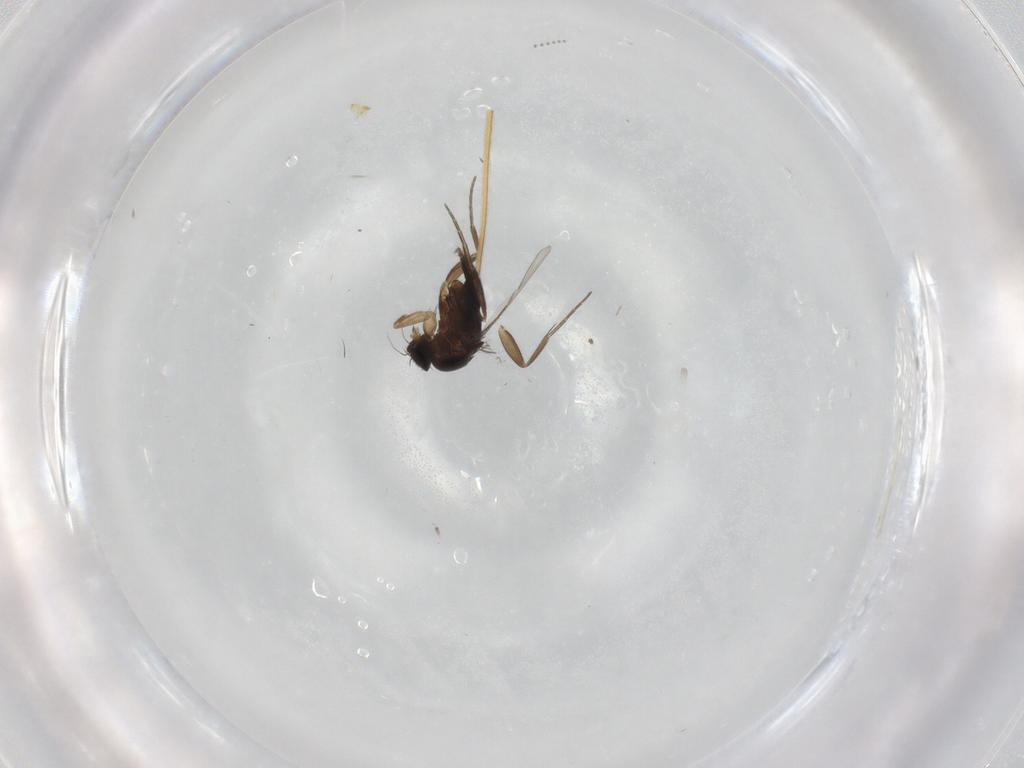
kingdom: Animalia
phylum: Arthropoda
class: Insecta
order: Diptera
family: Phoridae
